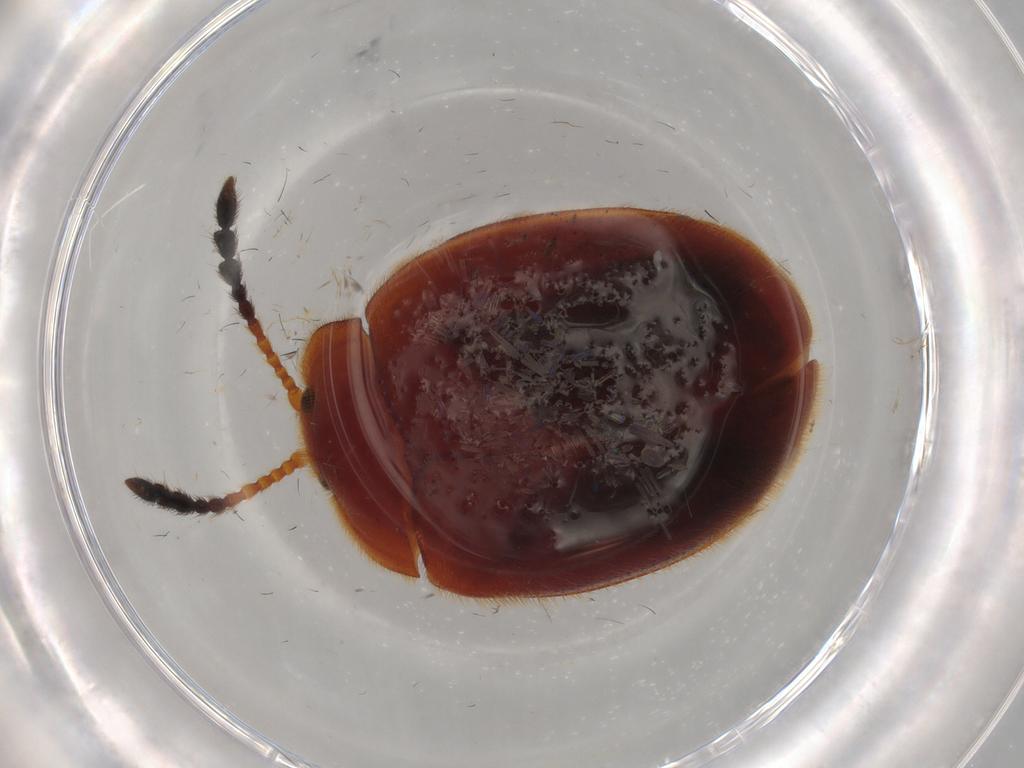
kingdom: Animalia
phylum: Arthropoda
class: Insecta
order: Coleoptera
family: Endomychidae
